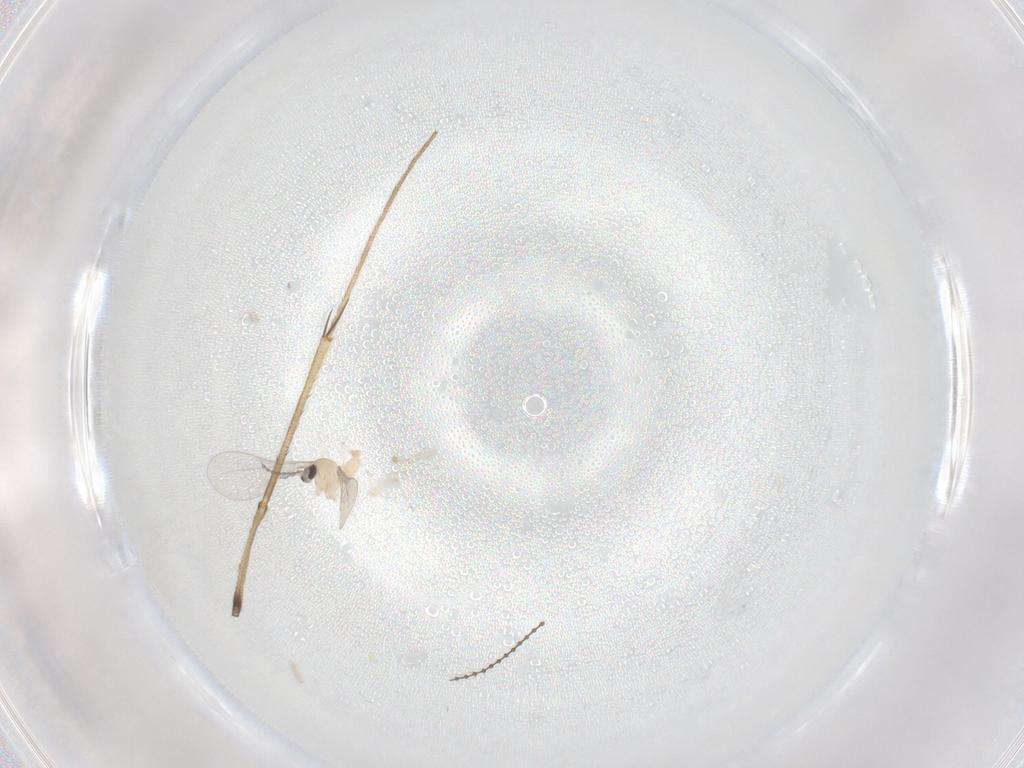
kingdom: Animalia
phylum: Arthropoda
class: Insecta
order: Diptera
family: Cecidomyiidae
